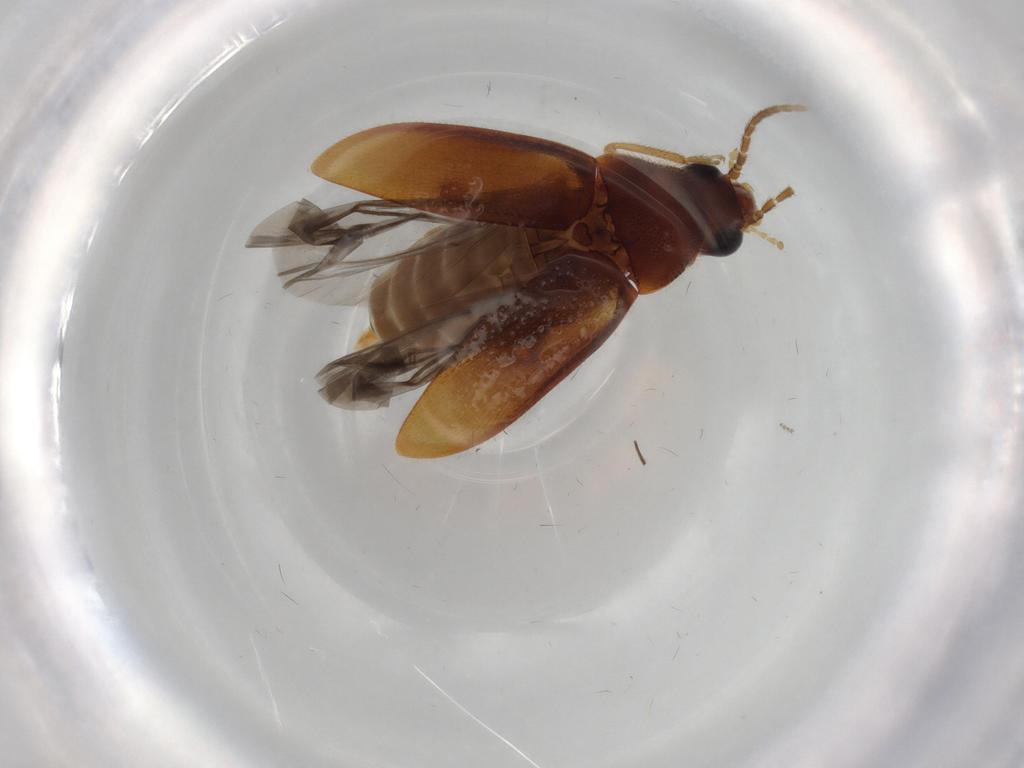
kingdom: Animalia
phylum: Arthropoda
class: Insecta
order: Coleoptera
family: Ptilodactylidae
